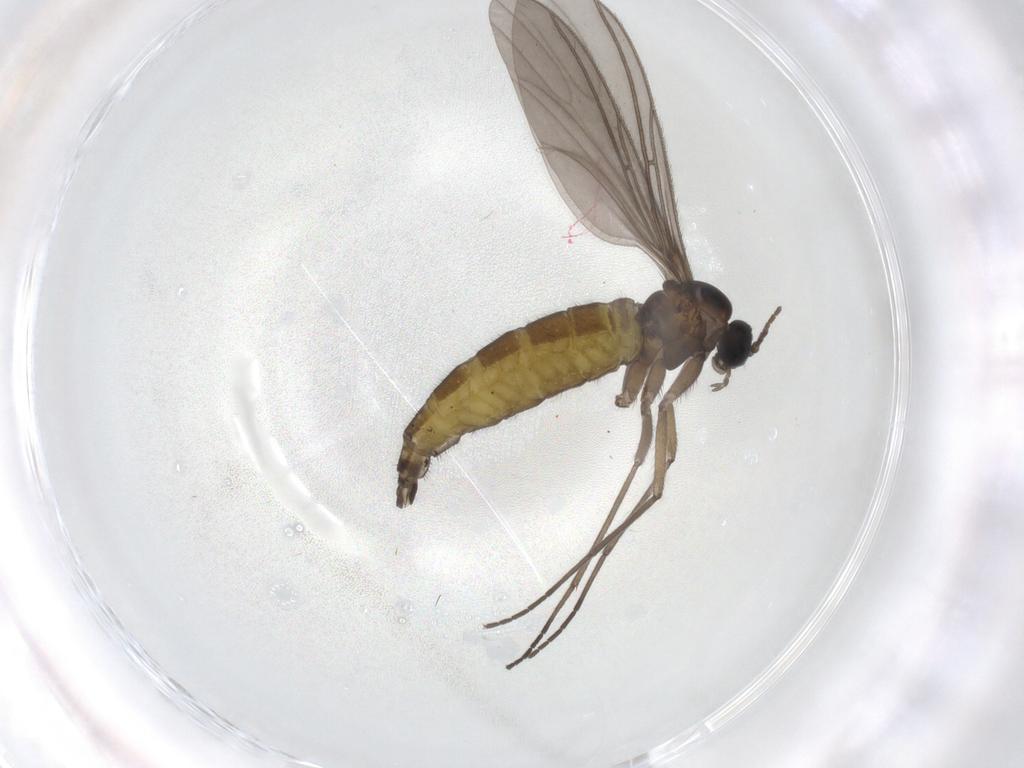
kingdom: Animalia
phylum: Arthropoda
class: Insecta
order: Diptera
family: Sciaridae
